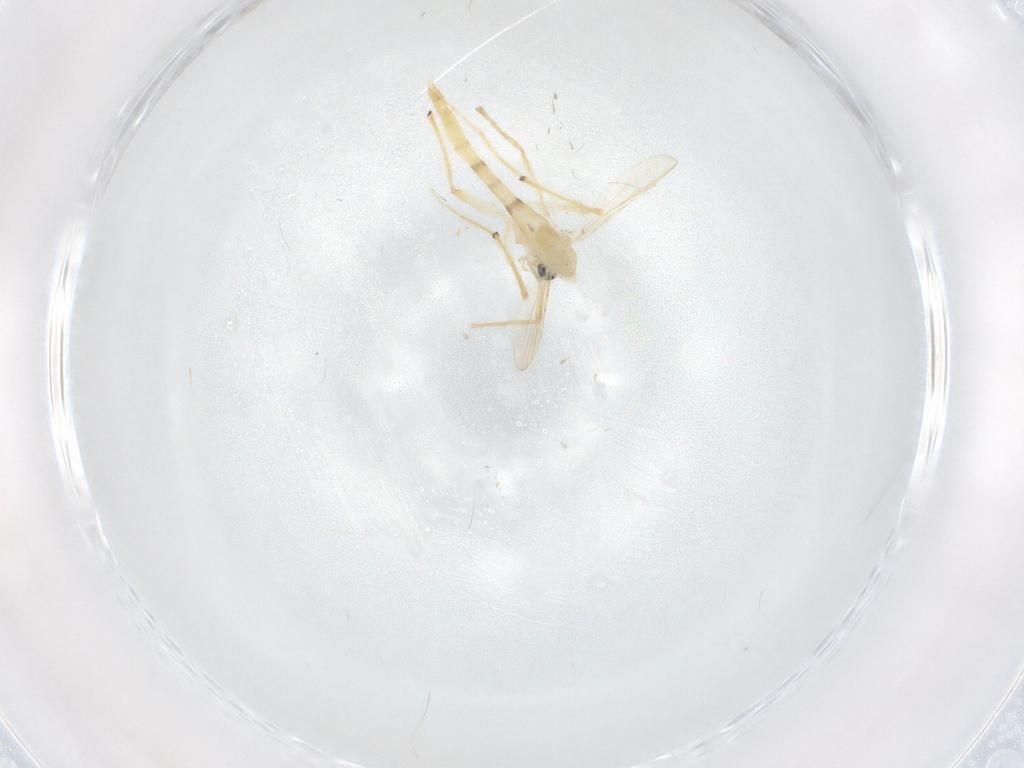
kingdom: Animalia
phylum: Arthropoda
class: Insecta
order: Diptera
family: Chironomidae
